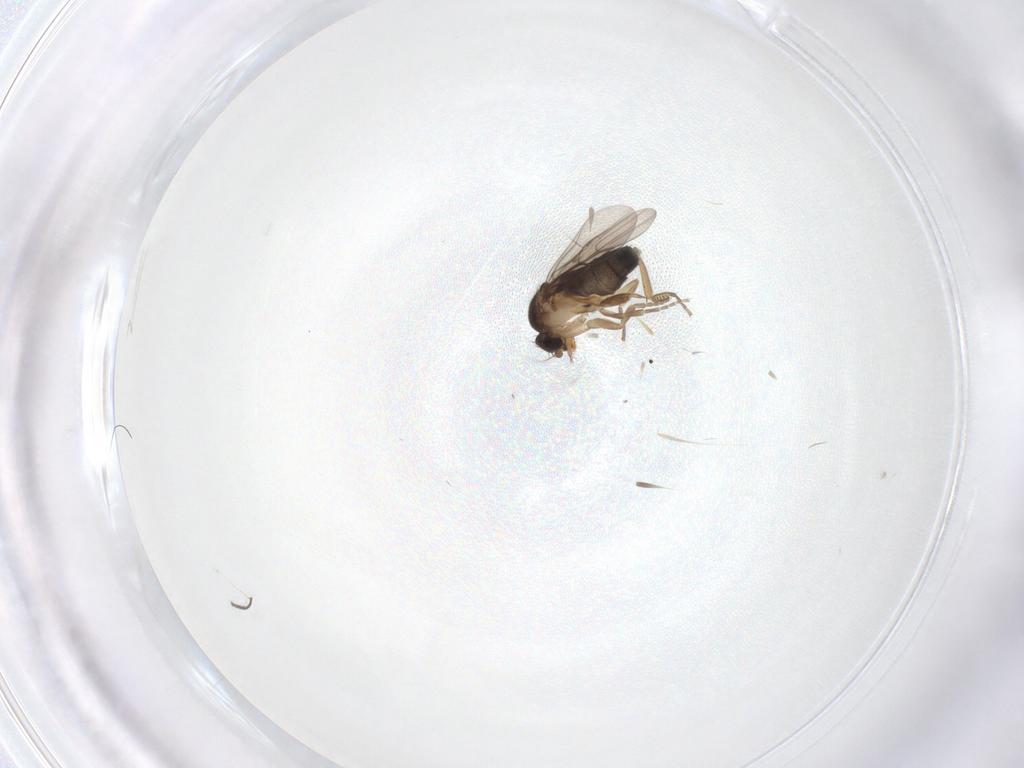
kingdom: Animalia
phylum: Arthropoda
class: Insecta
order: Diptera
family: Phoridae
